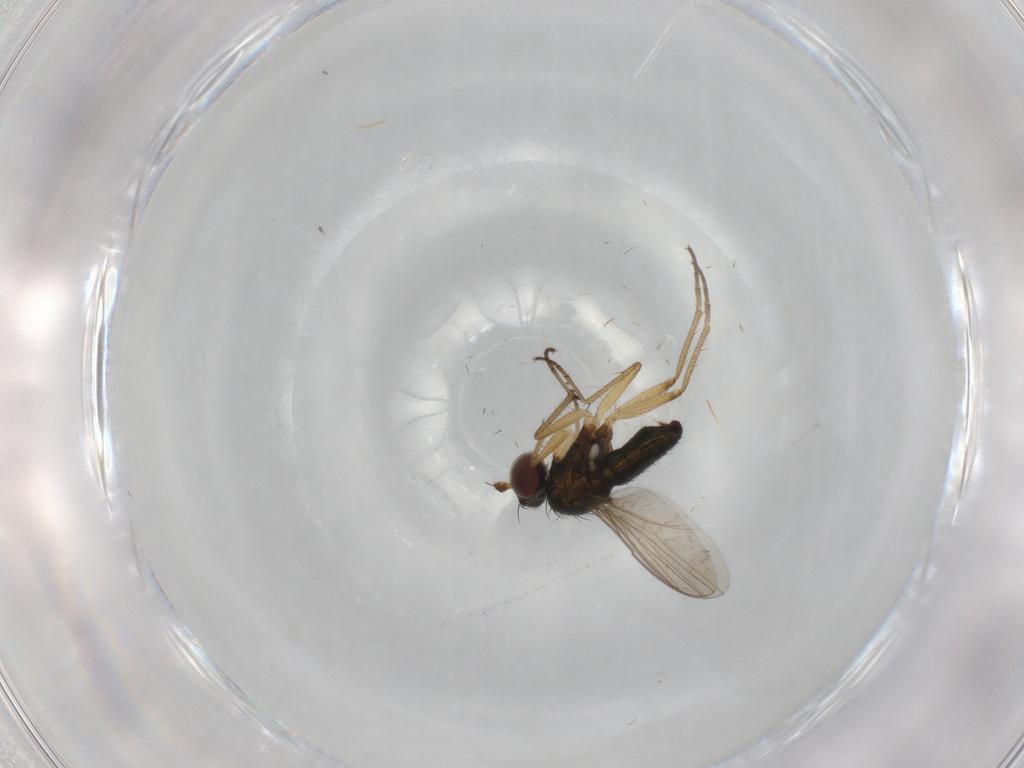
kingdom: Animalia
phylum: Arthropoda
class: Insecta
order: Diptera
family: Dolichopodidae
